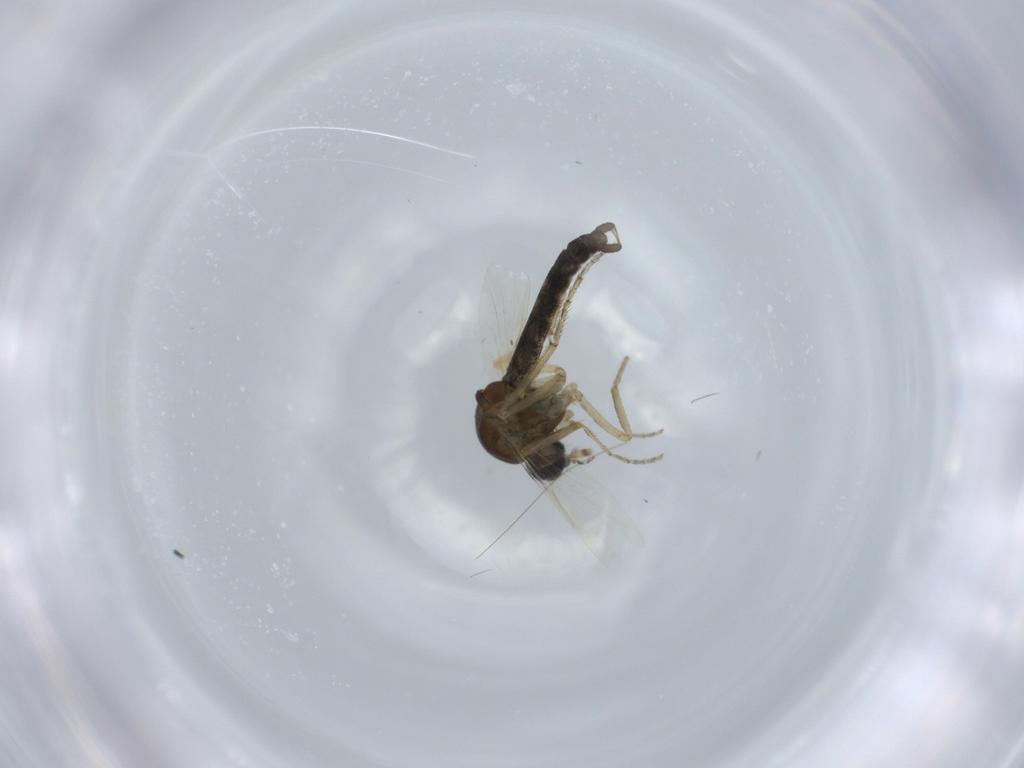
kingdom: Animalia
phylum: Arthropoda
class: Insecta
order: Diptera
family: Ceratopogonidae
